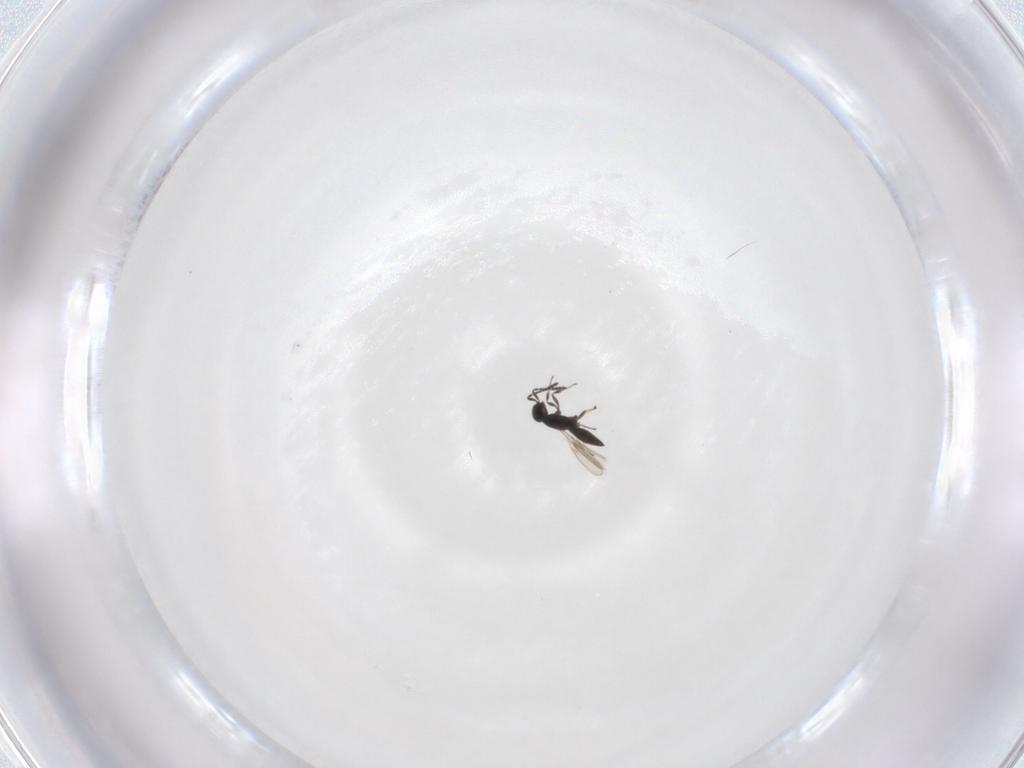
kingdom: Animalia
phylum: Arthropoda
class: Insecta
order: Hymenoptera
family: Scelionidae
